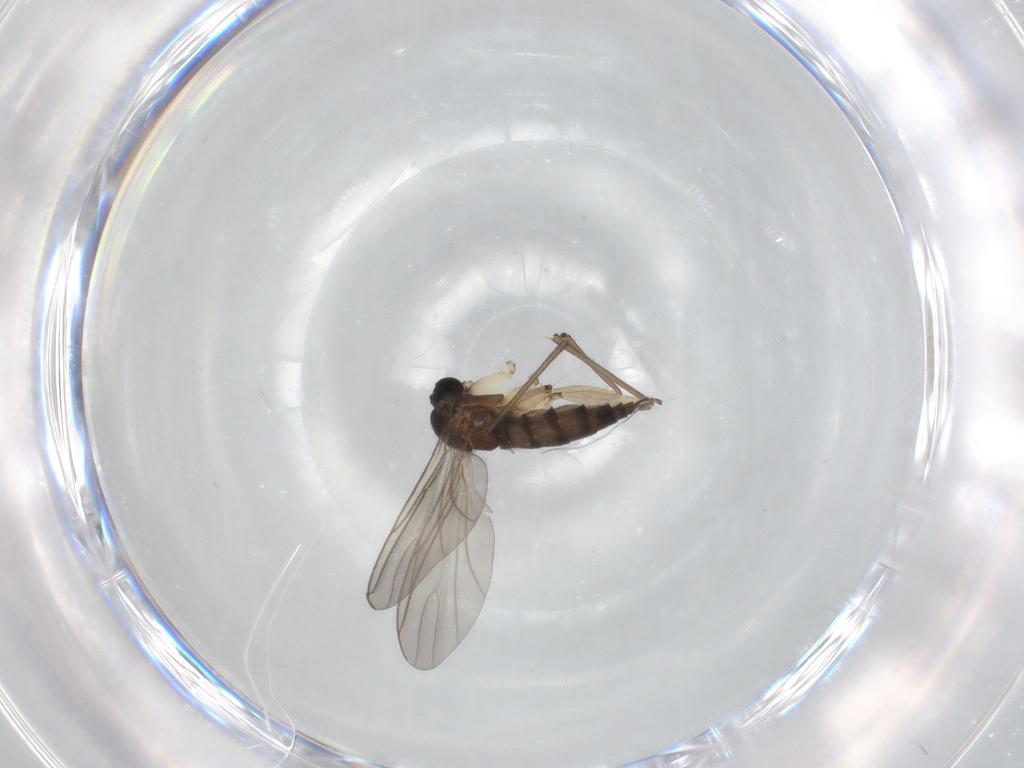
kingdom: Animalia
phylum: Arthropoda
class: Insecta
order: Diptera
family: Sciaridae
